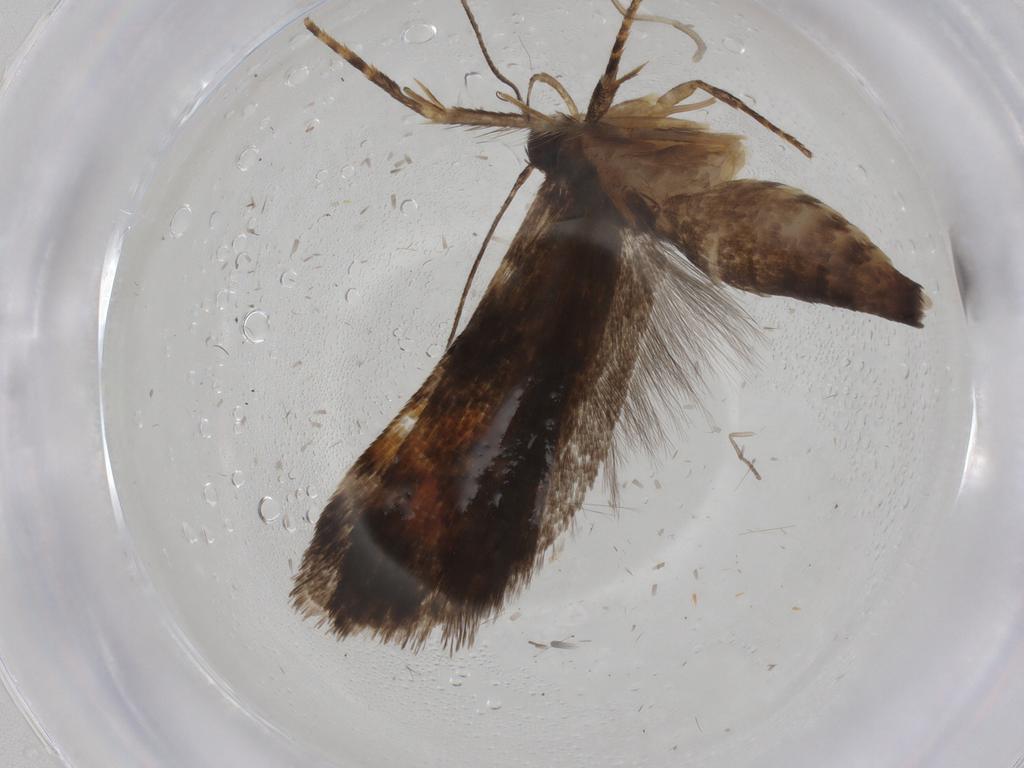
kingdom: Animalia
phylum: Arthropoda
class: Insecta
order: Lepidoptera
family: Gelechiidae
